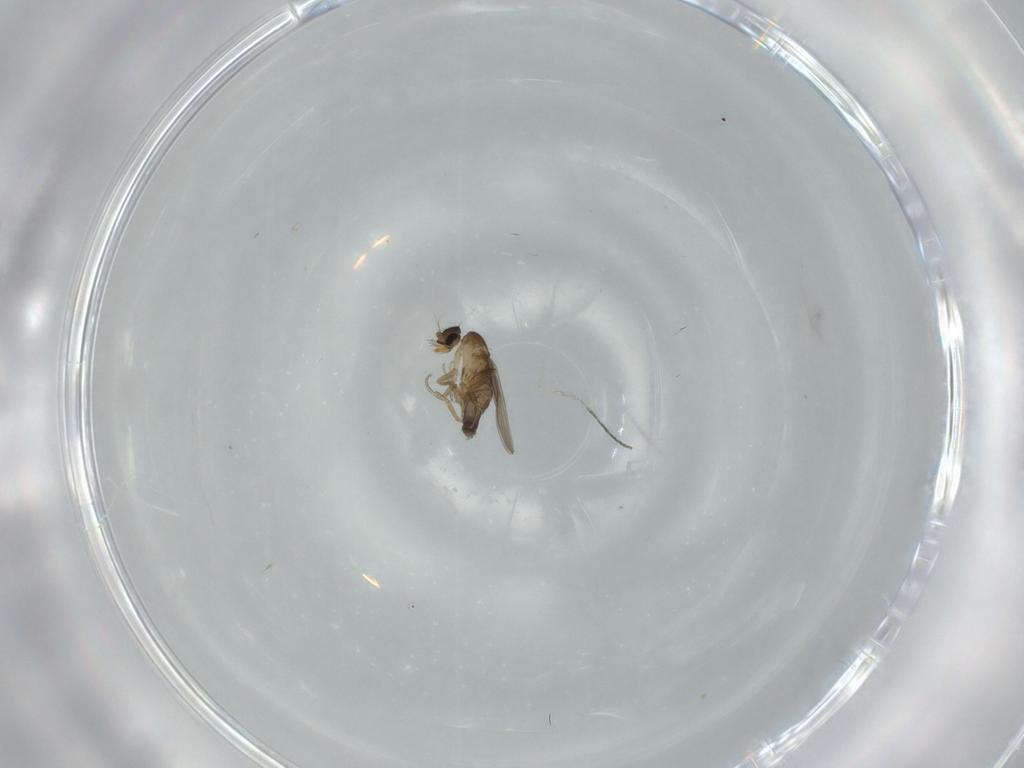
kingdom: Animalia
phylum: Arthropoda
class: Insecta
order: Diptera
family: Cecidomyiidae
